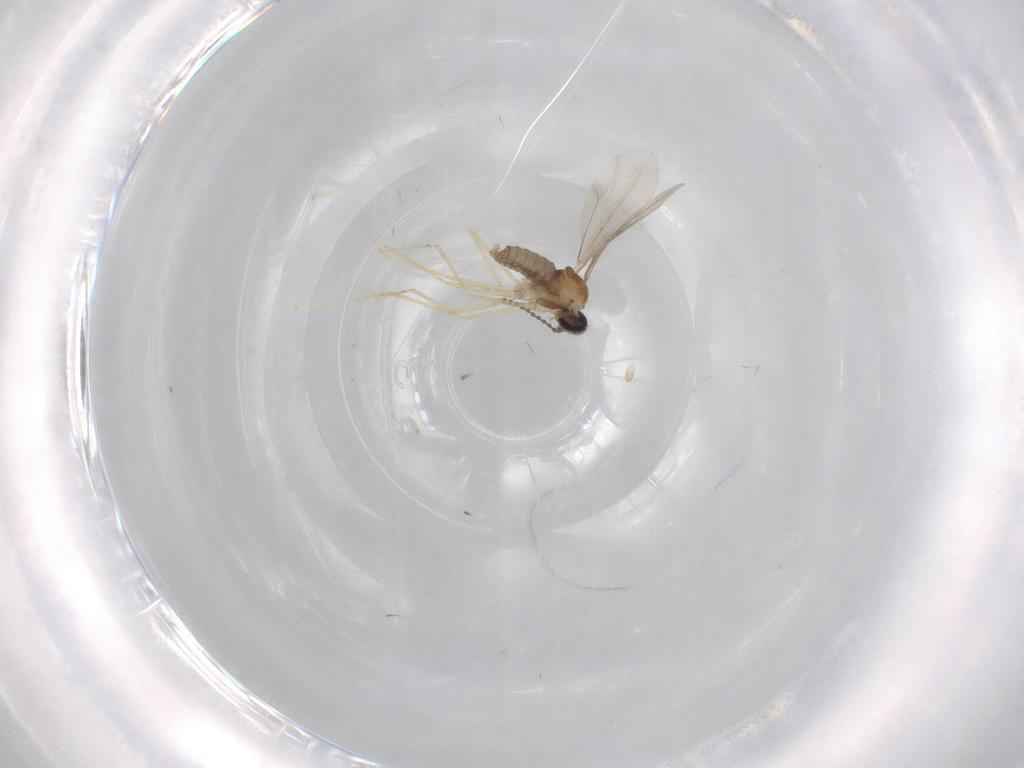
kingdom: Animalia
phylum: Arthropoda
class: Insecta
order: Diptera
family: Cecidomyiidae
